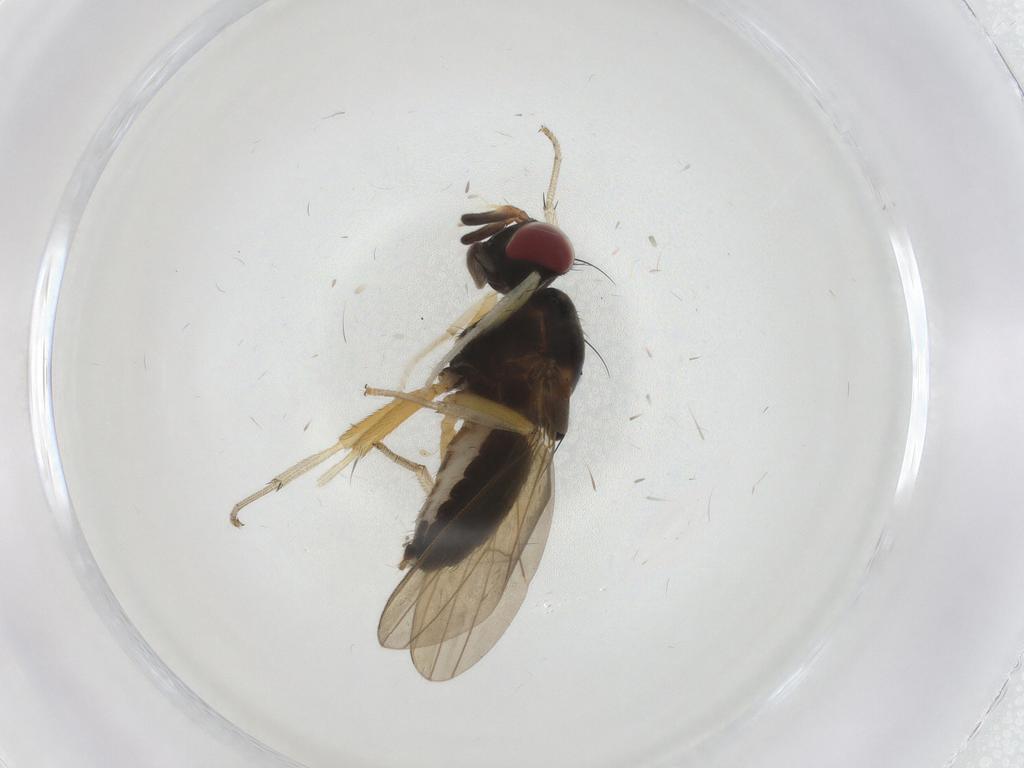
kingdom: Animalia
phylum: Arthropoda
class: Insecta
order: Diptera
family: Lauxaniidae
